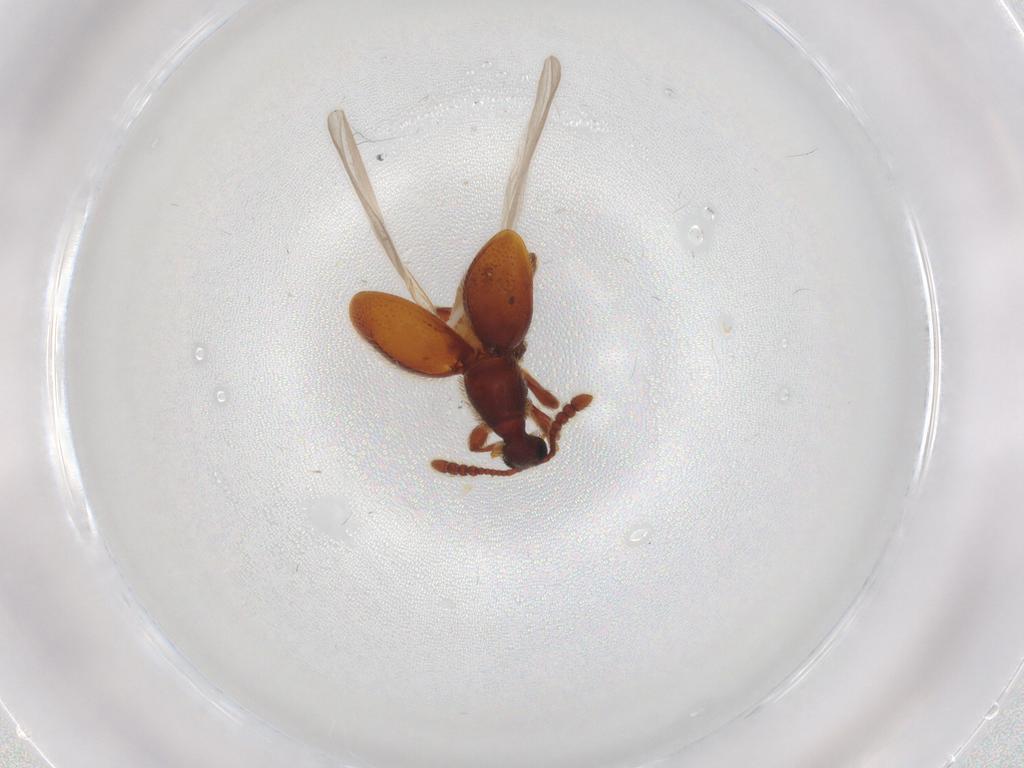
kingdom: Animalia
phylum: Arthropoda
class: Insecta
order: Coleoptera
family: Staphylinidae
